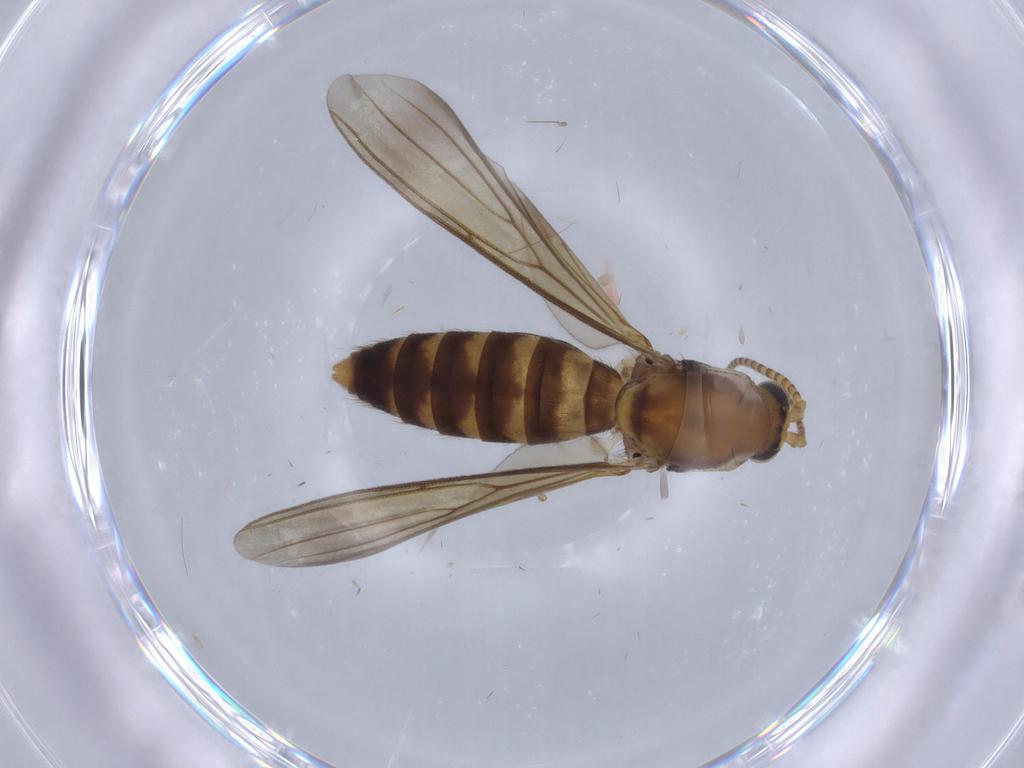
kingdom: Animalia
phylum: Arthropoda
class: Insecta
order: Diptera
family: Mycetophilidae
